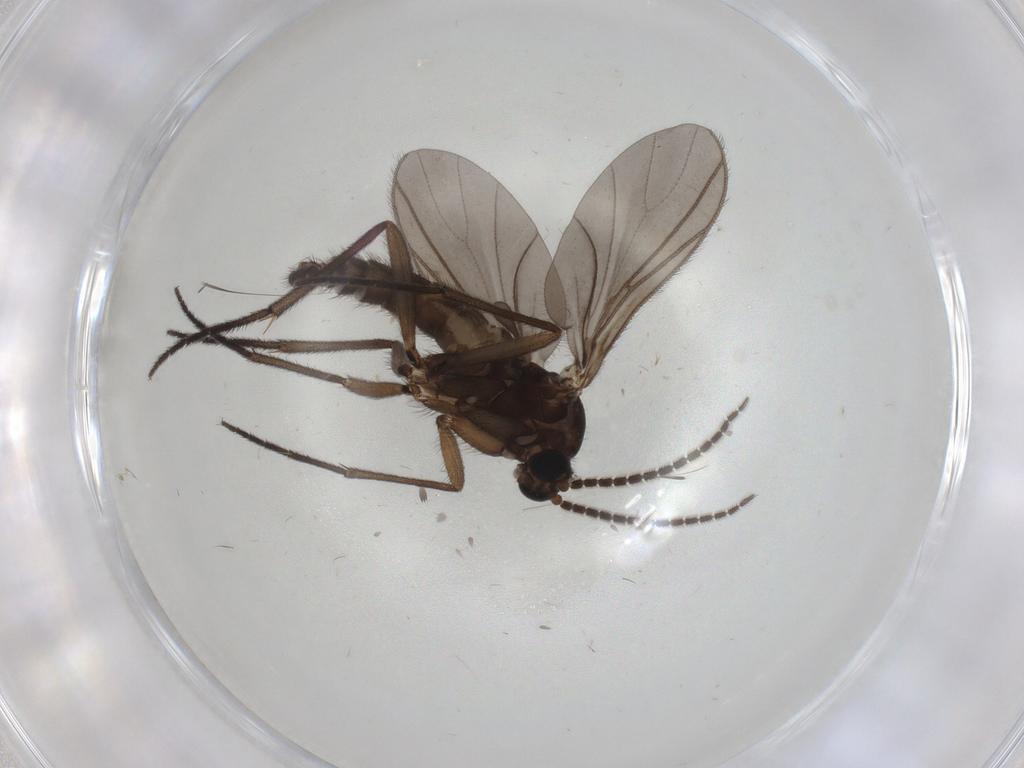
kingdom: Animalia
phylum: Arthropoda
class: Insecta
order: Diptera
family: Sciaridae
